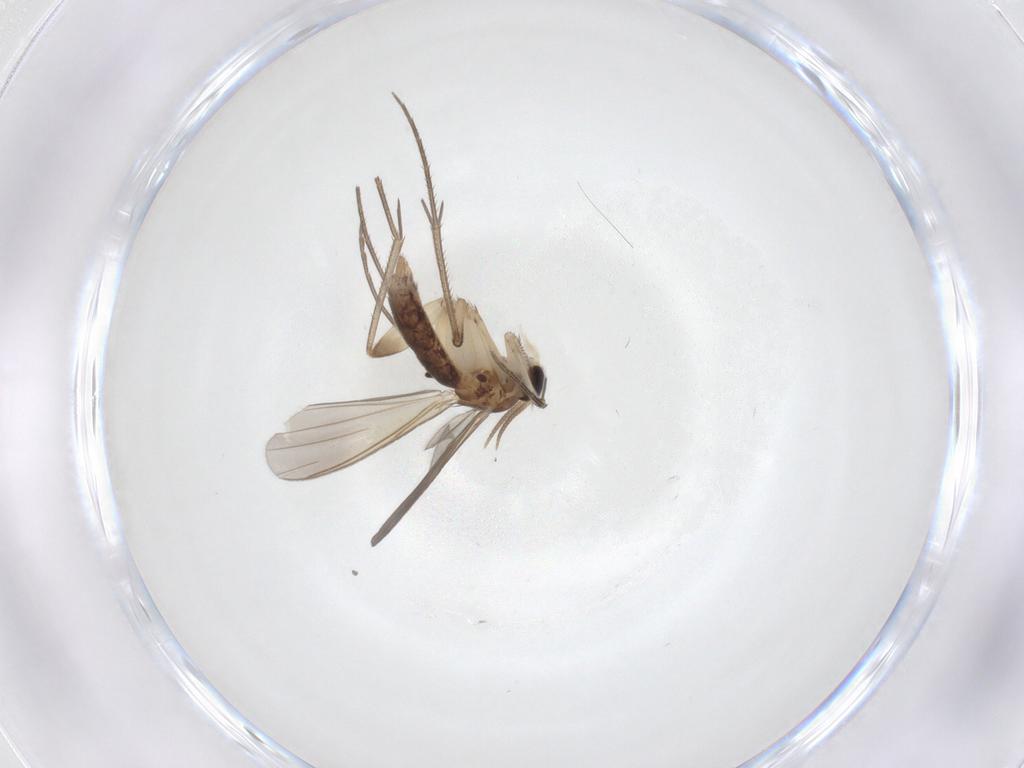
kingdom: Animalia
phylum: Arthropoda
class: Insecta
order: Diptera
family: Mycetophilidae
